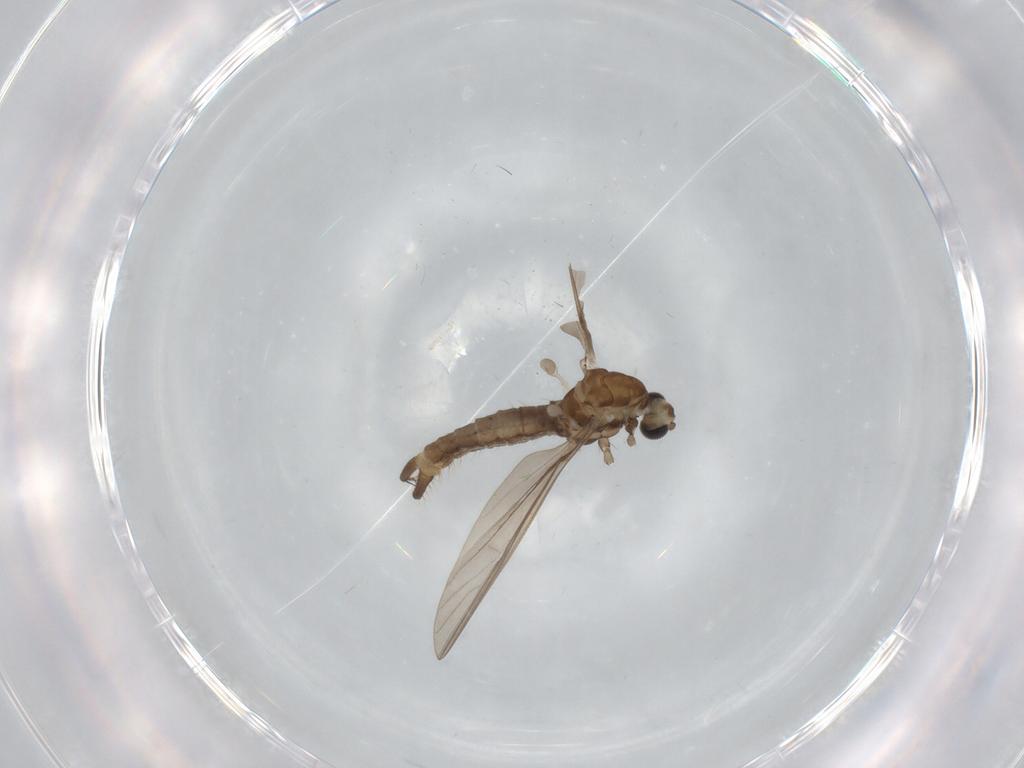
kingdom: Animalia
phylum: Arthropoda
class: Insecta
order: Diptera
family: Limoniidae
